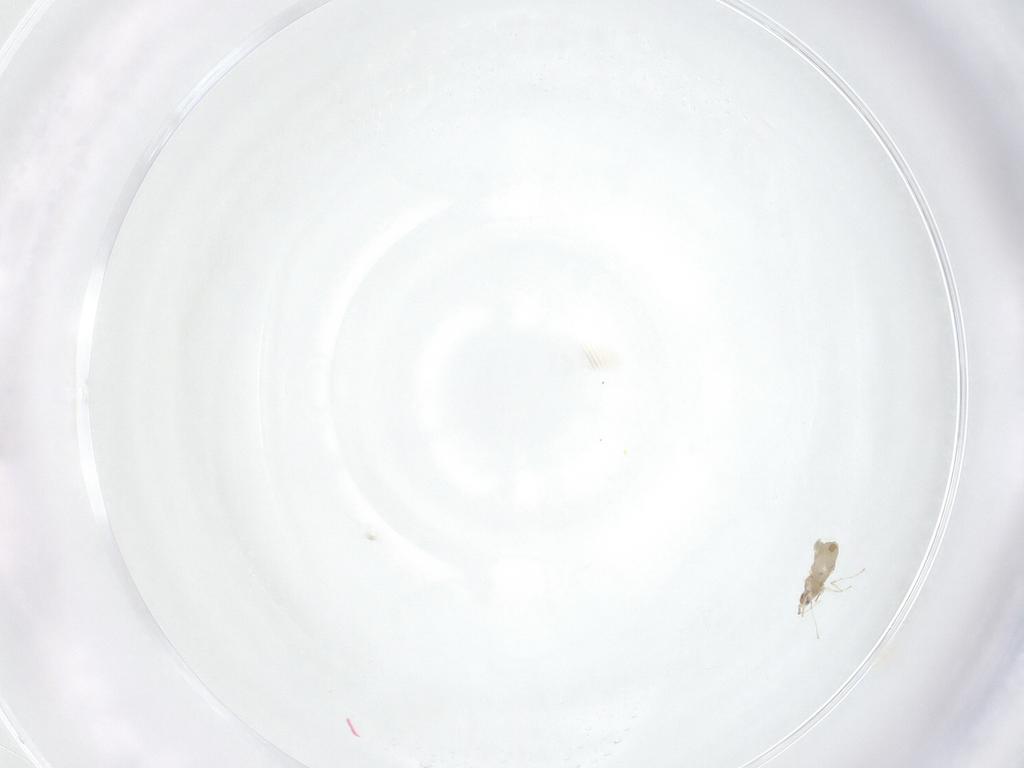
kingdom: Animalia
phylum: Arthropoda
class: Insecta
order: Diptera
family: Cecidomyiidae
